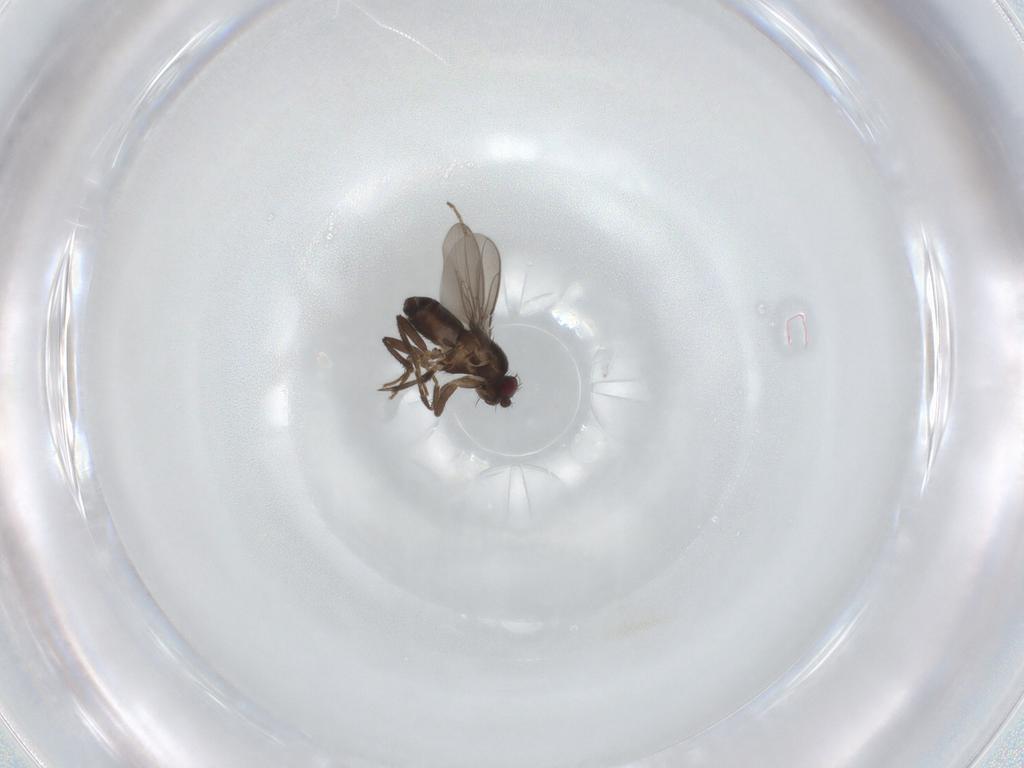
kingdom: Animalia
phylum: Arthropoda
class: Insecta
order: Diptera
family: Sphaeroceridae
